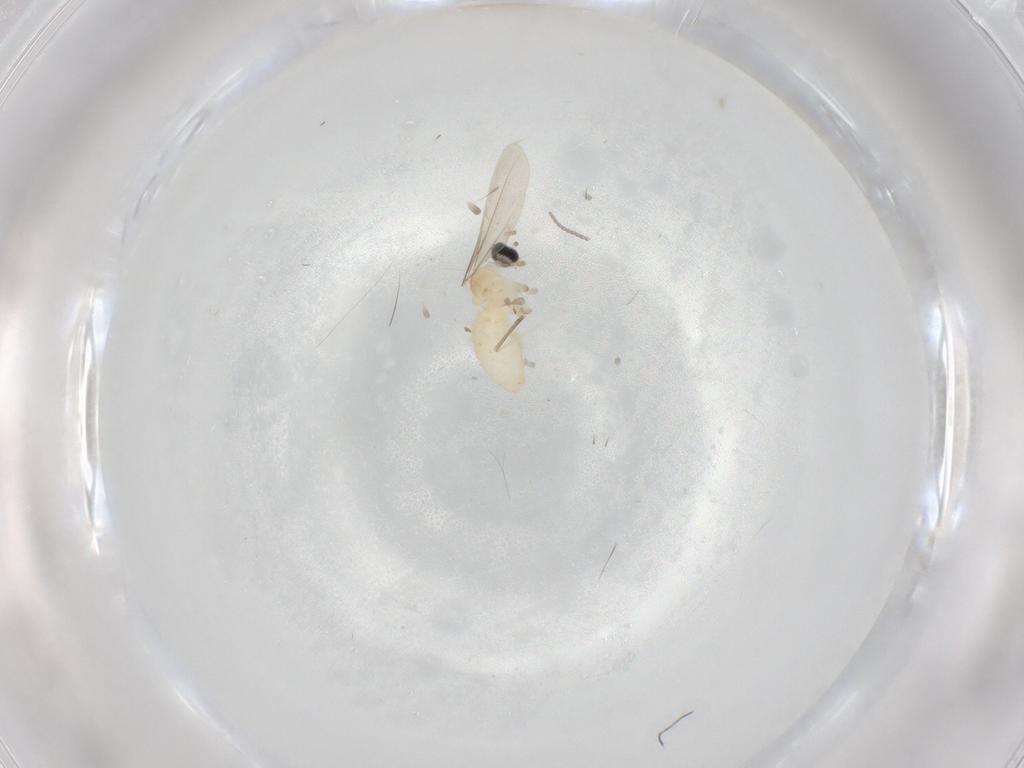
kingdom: Animalia
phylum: Arthropoda
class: Insecta
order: Diptera
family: Cecidomyiidae
